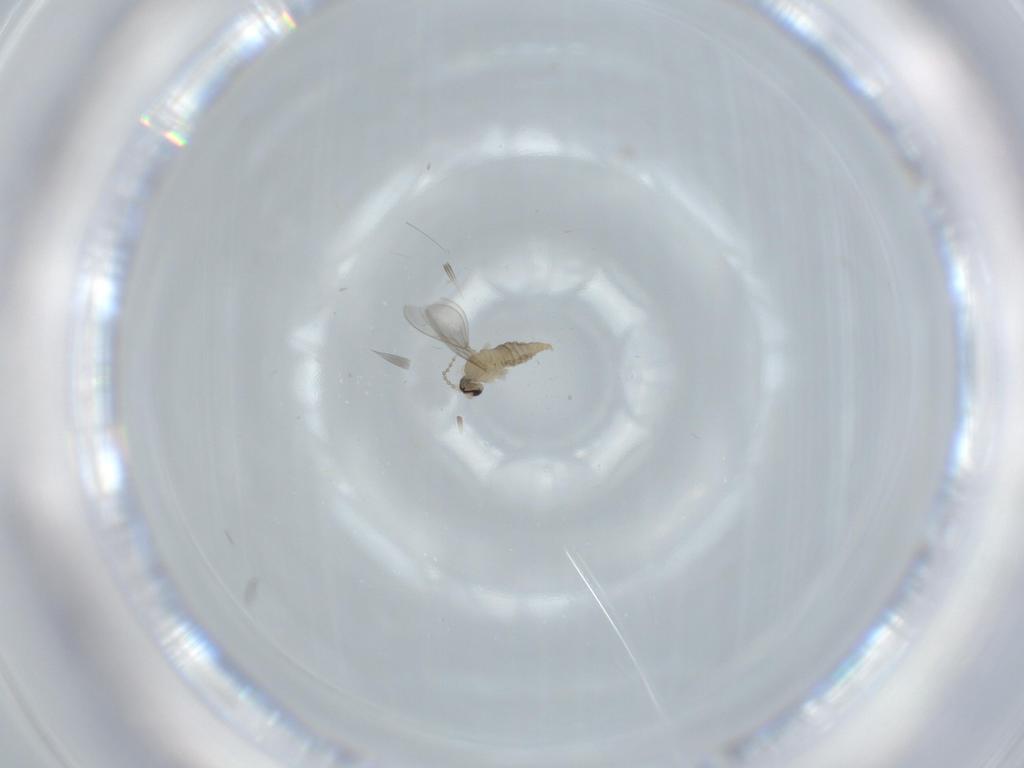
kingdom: Animalia
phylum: Arthropoda
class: Insecta
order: Diptera
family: Cecidomyiidae
